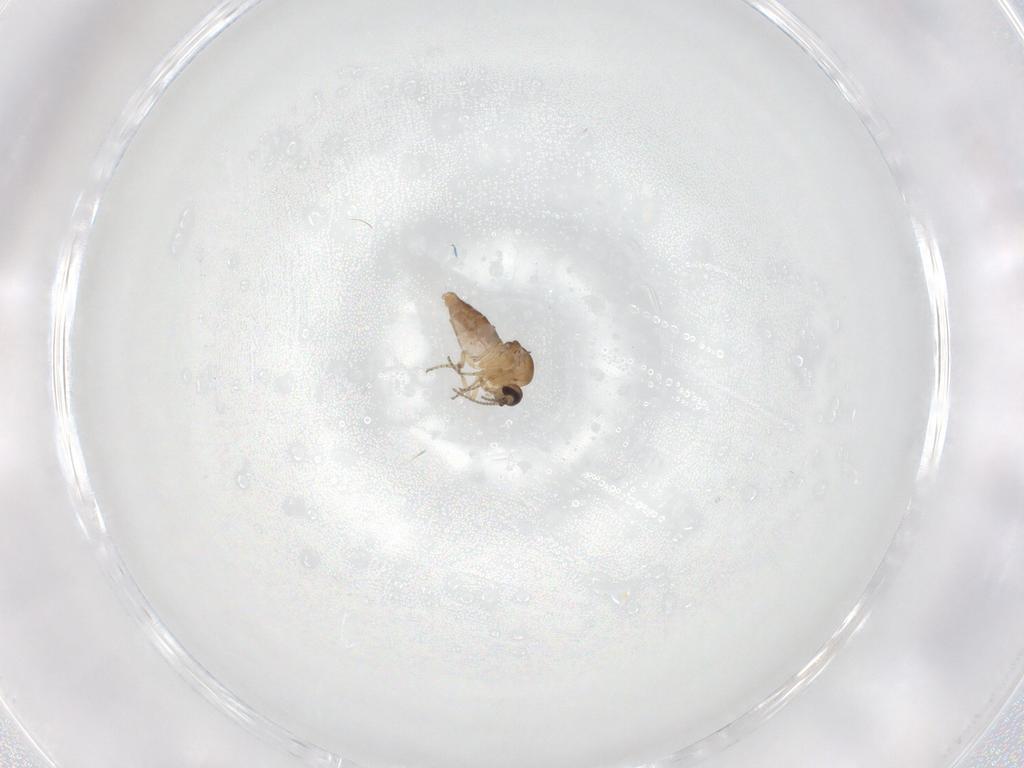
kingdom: Animalia
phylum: Arthropoda
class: Insecta
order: Diptera
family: Ceratopogonidae
